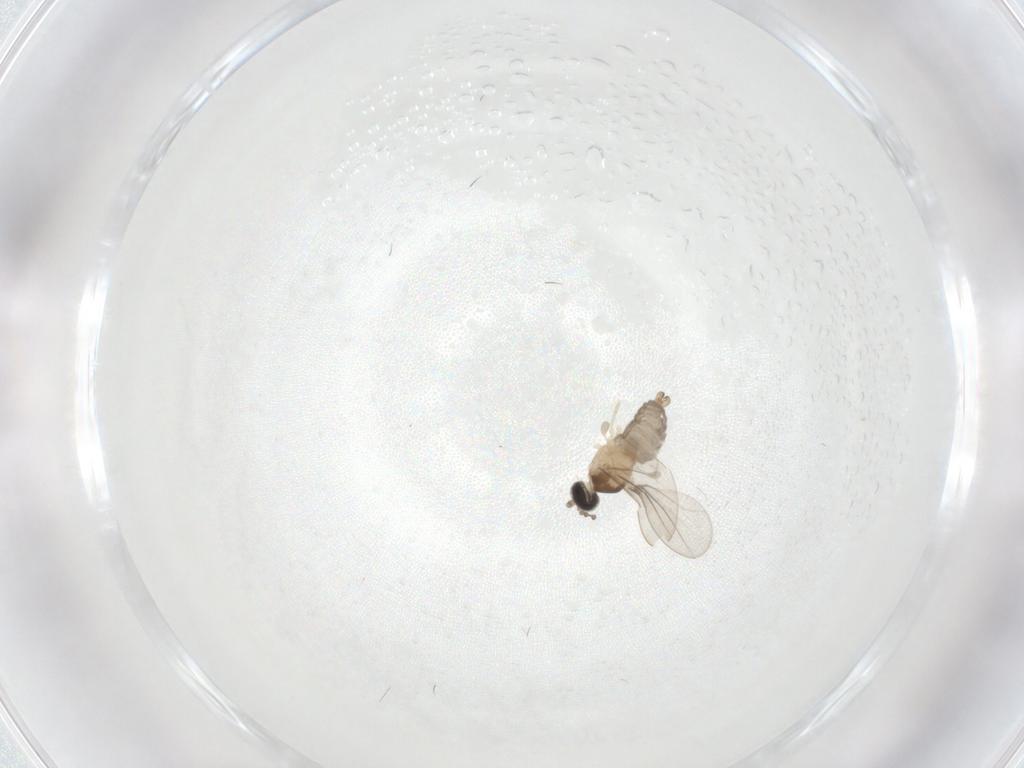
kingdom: Animalia
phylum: Arthropoda
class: Insecta
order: Diptera
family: Cecidomyiidae
